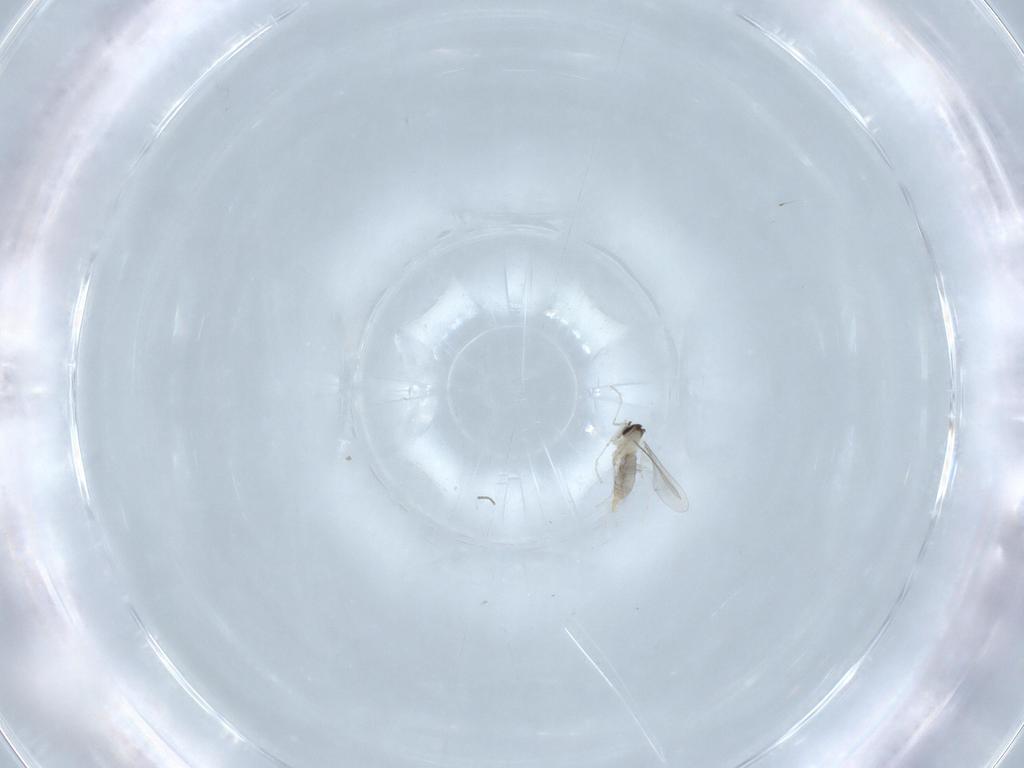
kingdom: Animalia
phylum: Arthropoda
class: Insecta
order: Diptera
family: Cecidomyiidae
